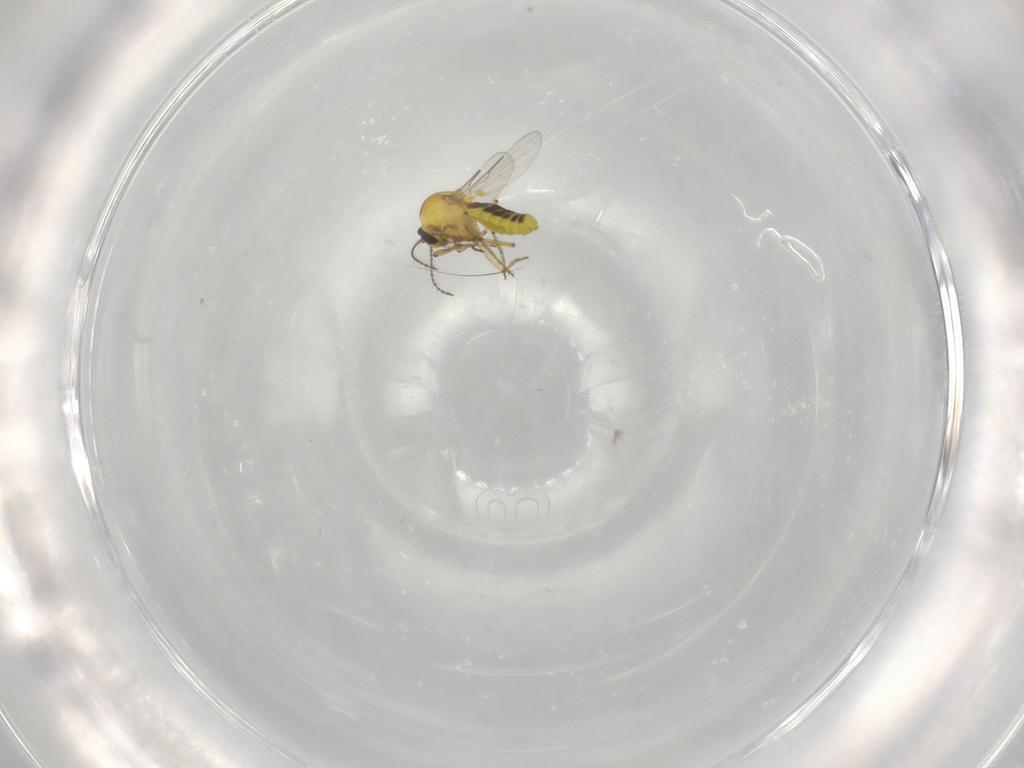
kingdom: Animalia
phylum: Arthropoda
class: Insecta
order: Diptera
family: Ceratopogonidae
